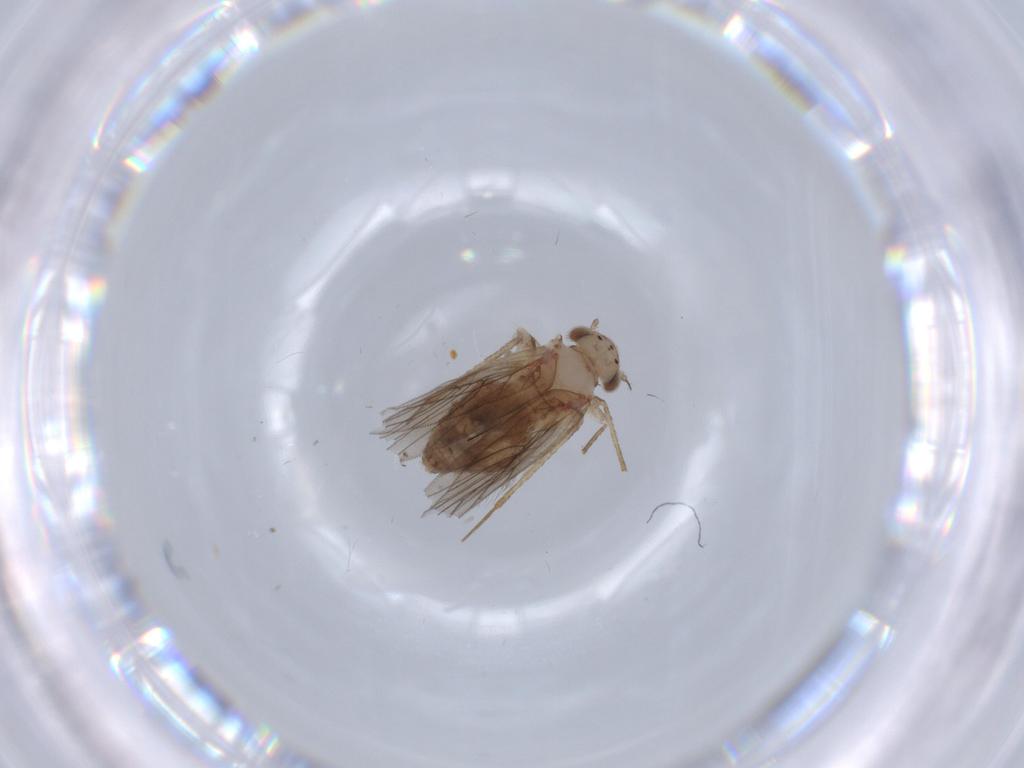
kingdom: Animalia
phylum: Arthropoda
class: Insecta
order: Psocodea
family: Lepidopsocidae
